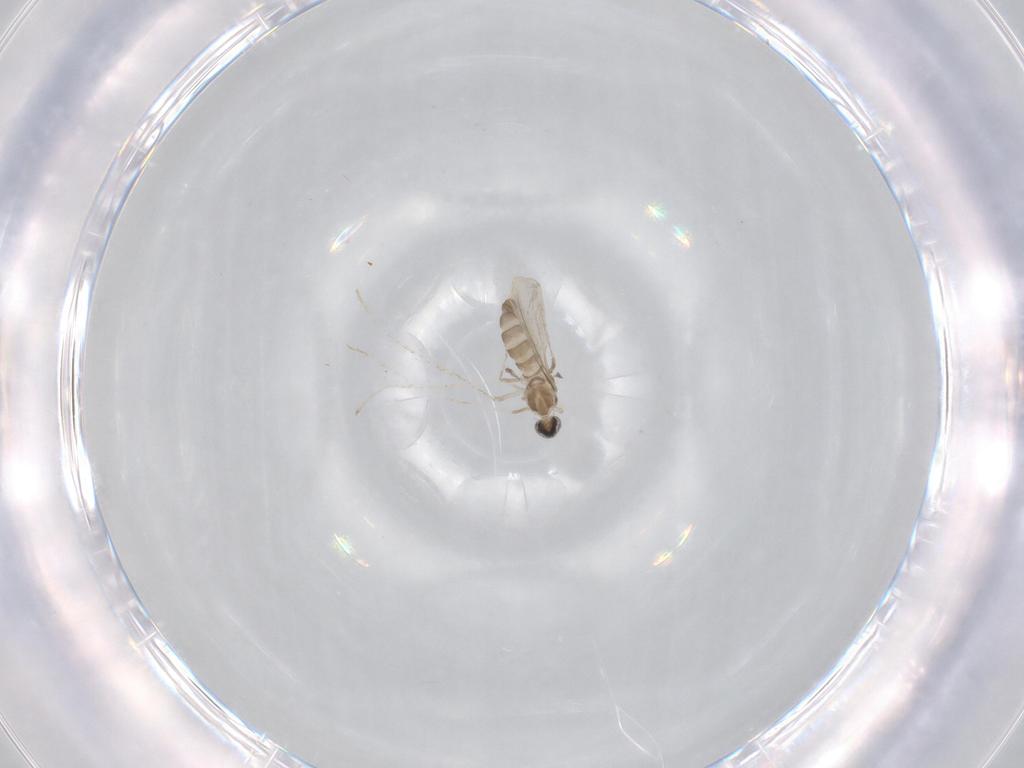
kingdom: Animalia
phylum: Arthropoda
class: Insecta
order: Diptera
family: Cecidomyiidae
